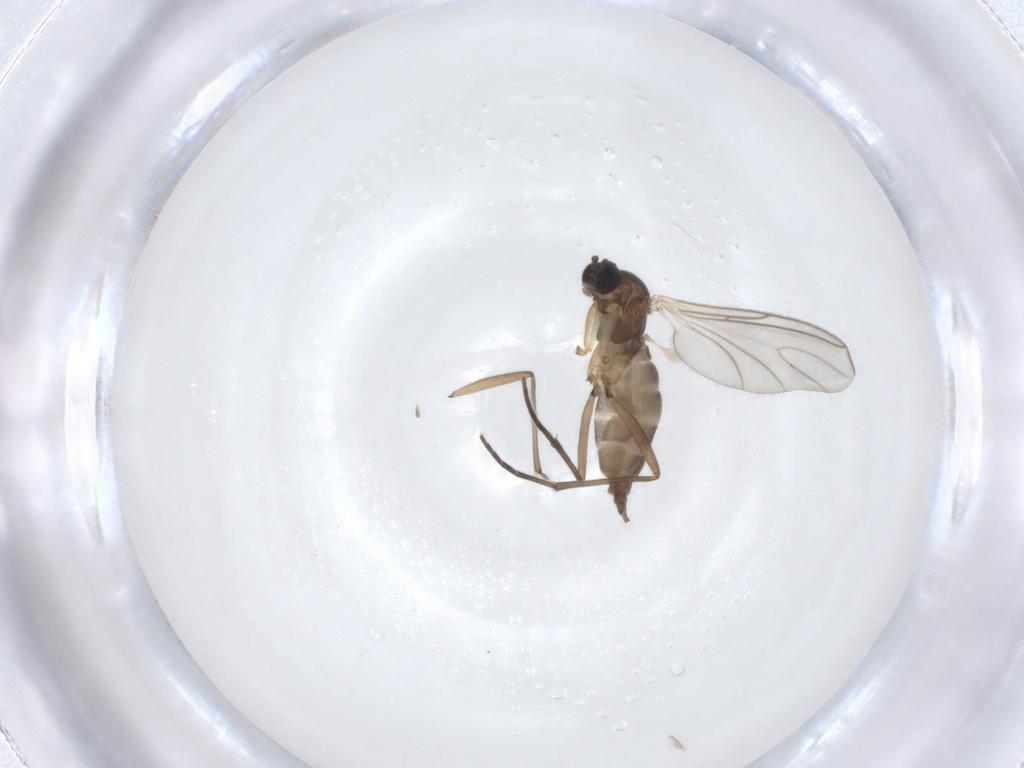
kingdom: Animalia
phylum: Arthropoda
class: Insecta
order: Diptera
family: Sciaridae
